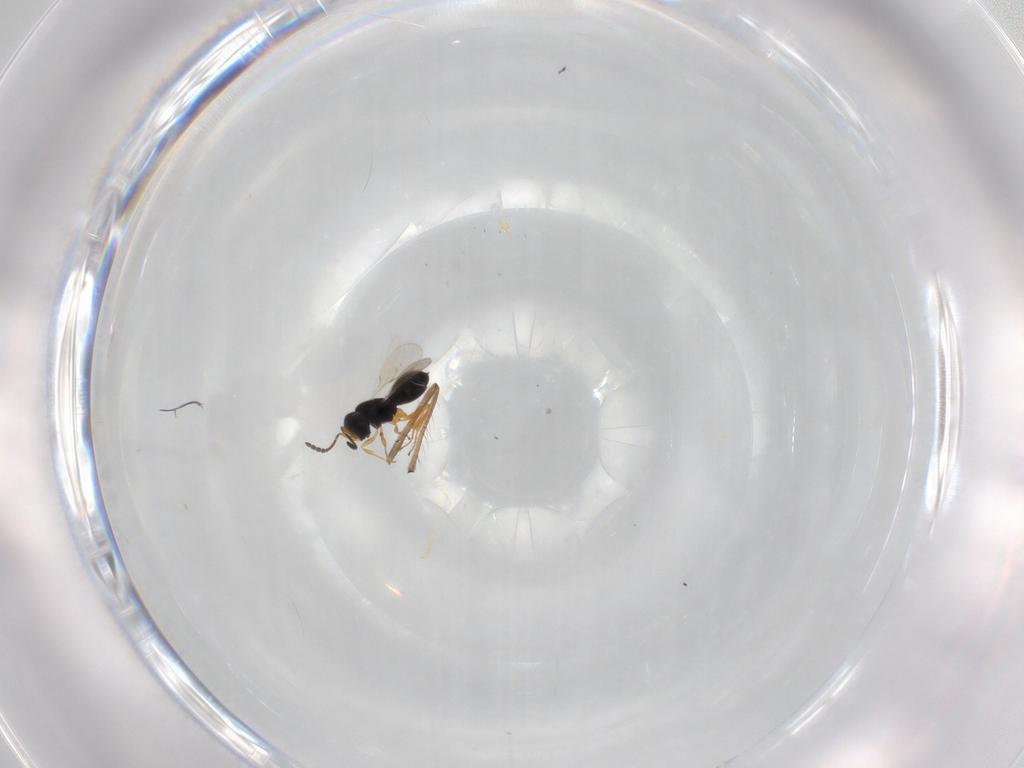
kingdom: Animalia
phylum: Arthropoda
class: Insecta
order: Hymenoptera
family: Scelionidae
